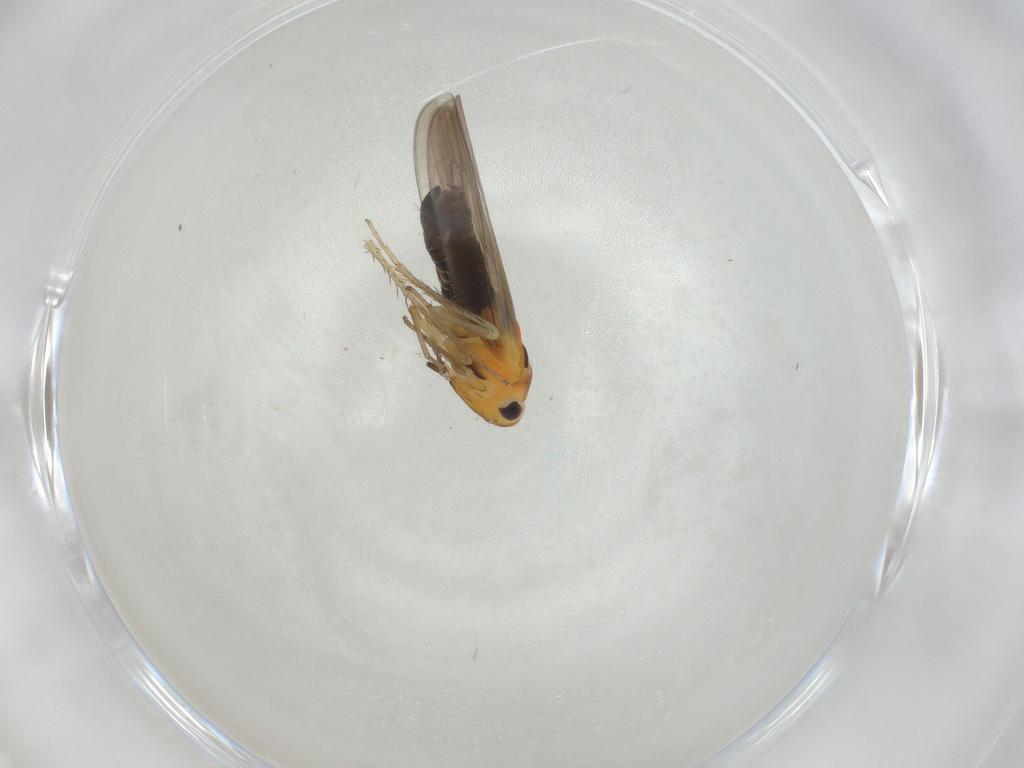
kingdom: Animalia
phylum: Arthropoda
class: Insecta
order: Hemiptera
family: Cicadellidae
